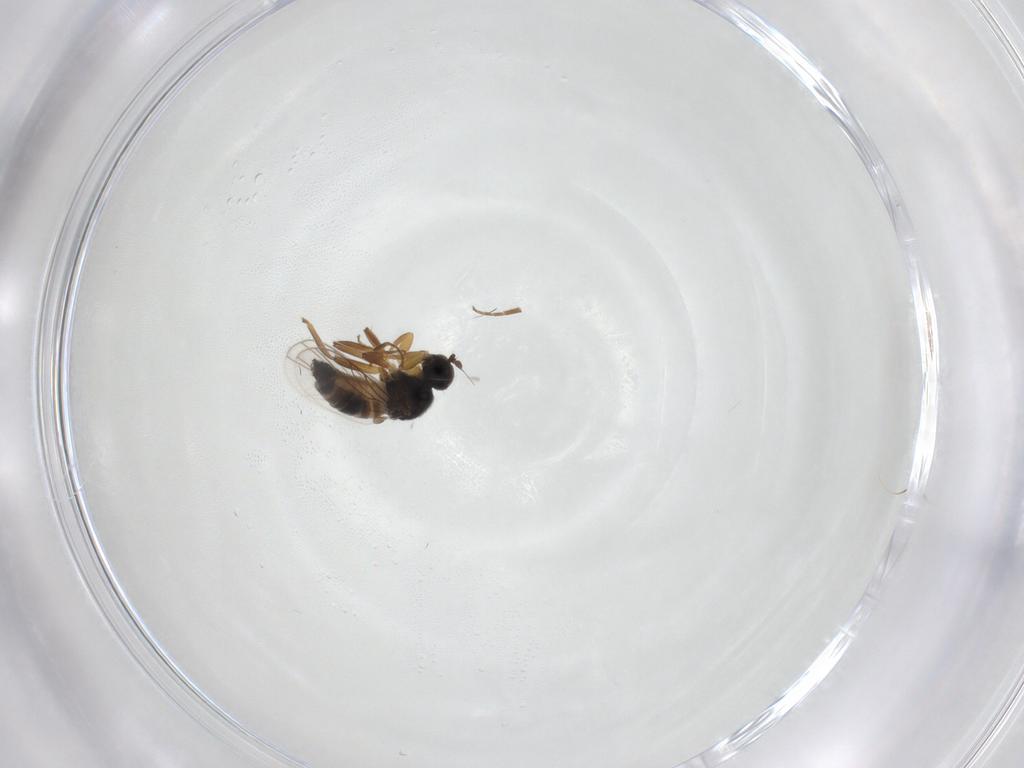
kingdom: Animalia
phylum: Arthropoda
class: Insecta
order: Diptera
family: Hybotidae
